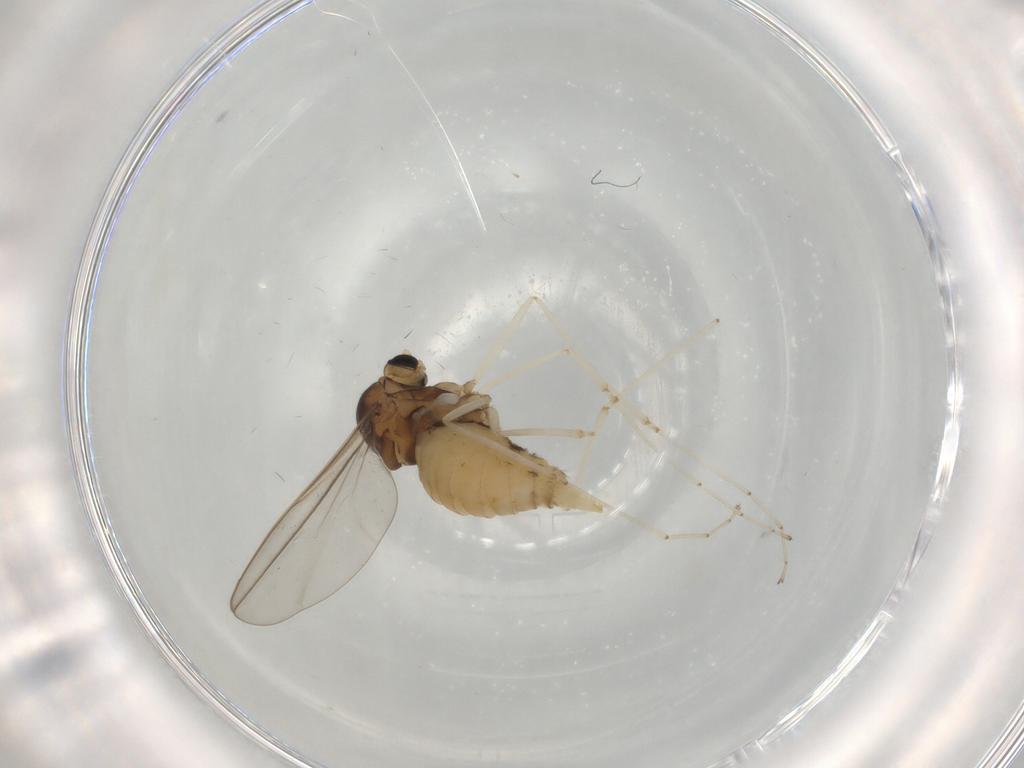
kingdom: Animalia
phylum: Arthropoda
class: Insecta
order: Diptera
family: Cecidomyiidae
